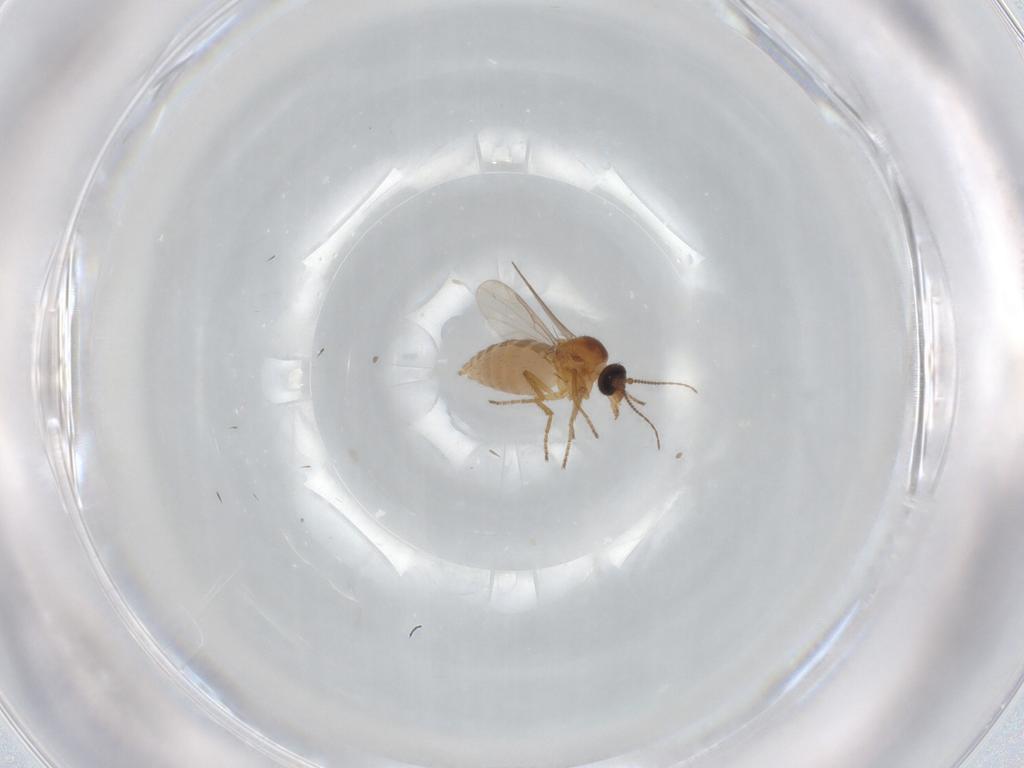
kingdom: Animalia
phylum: Arthropoda
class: Insecta
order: Diptera
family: Ceratopogonidae
